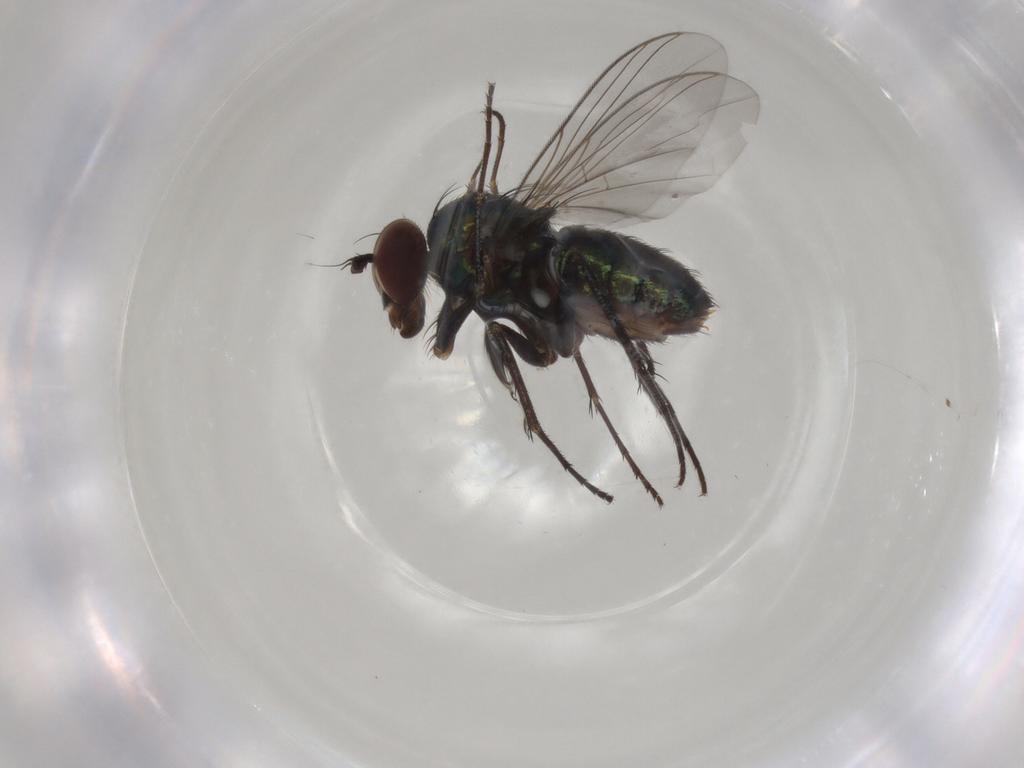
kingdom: Animalia
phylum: Arthropoda
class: Insecta
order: Diptera
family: Dolichopodidae
